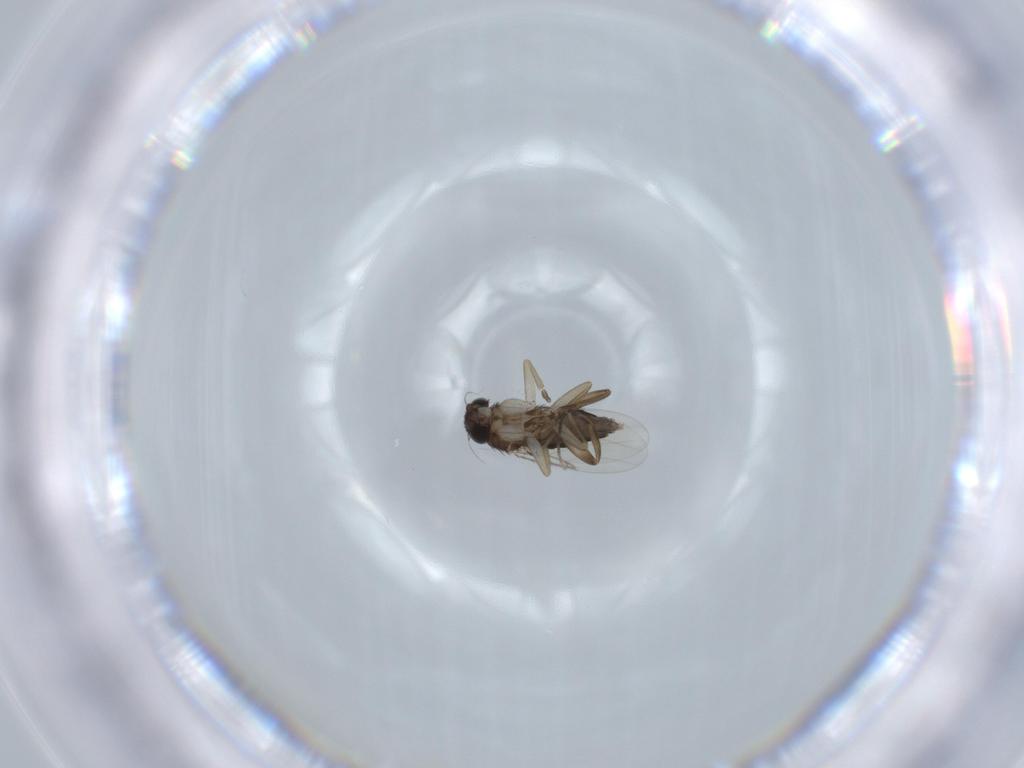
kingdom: Animalia
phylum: Arthropoda
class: Insecta
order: Diptera
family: Phoridae
